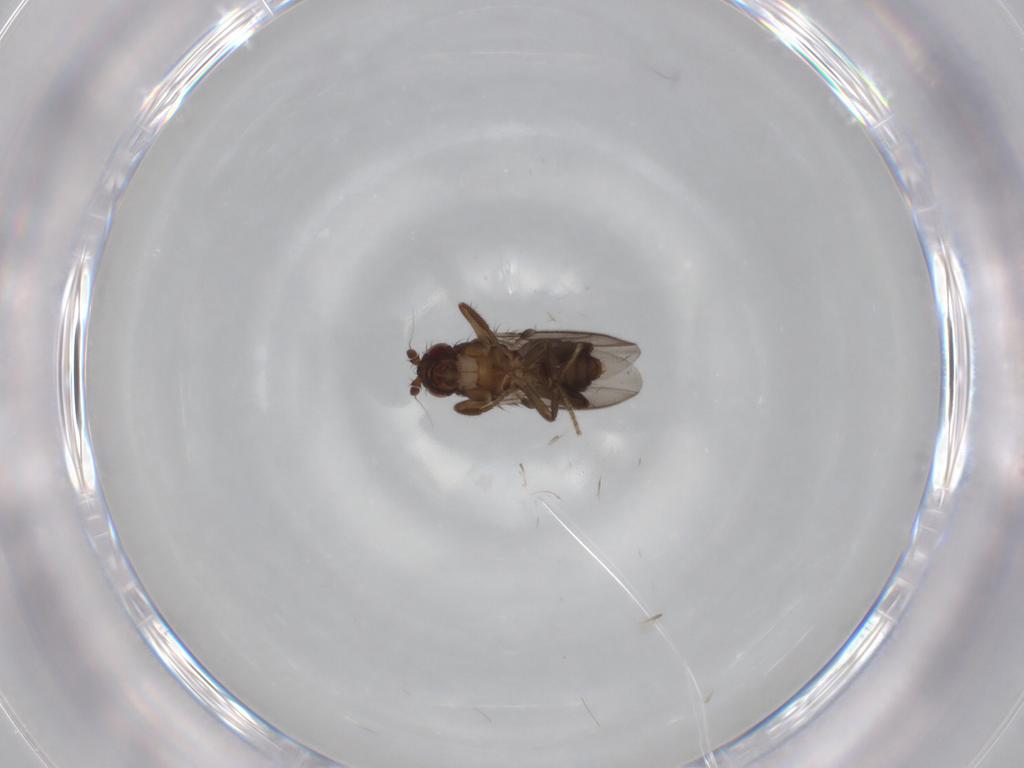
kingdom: Animalia
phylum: Arthropoda
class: Insecta
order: Diptera
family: Sphaeroceridae
